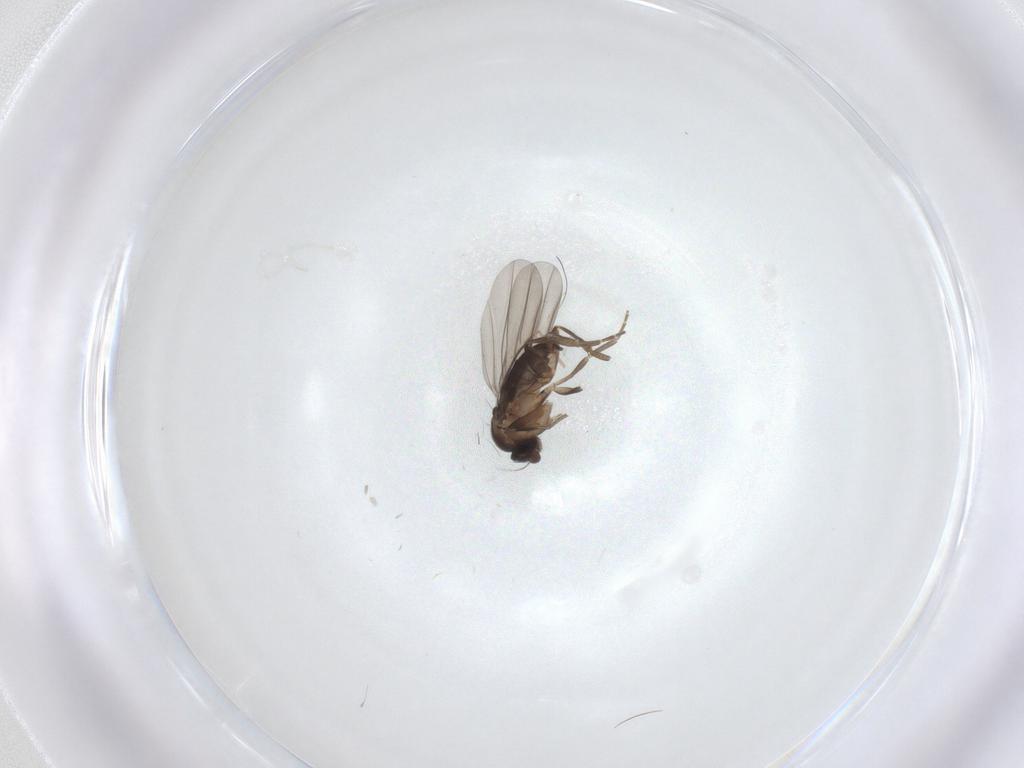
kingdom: Animalia
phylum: Arthropoda
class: Insecta
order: Diptera
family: Phoridae
